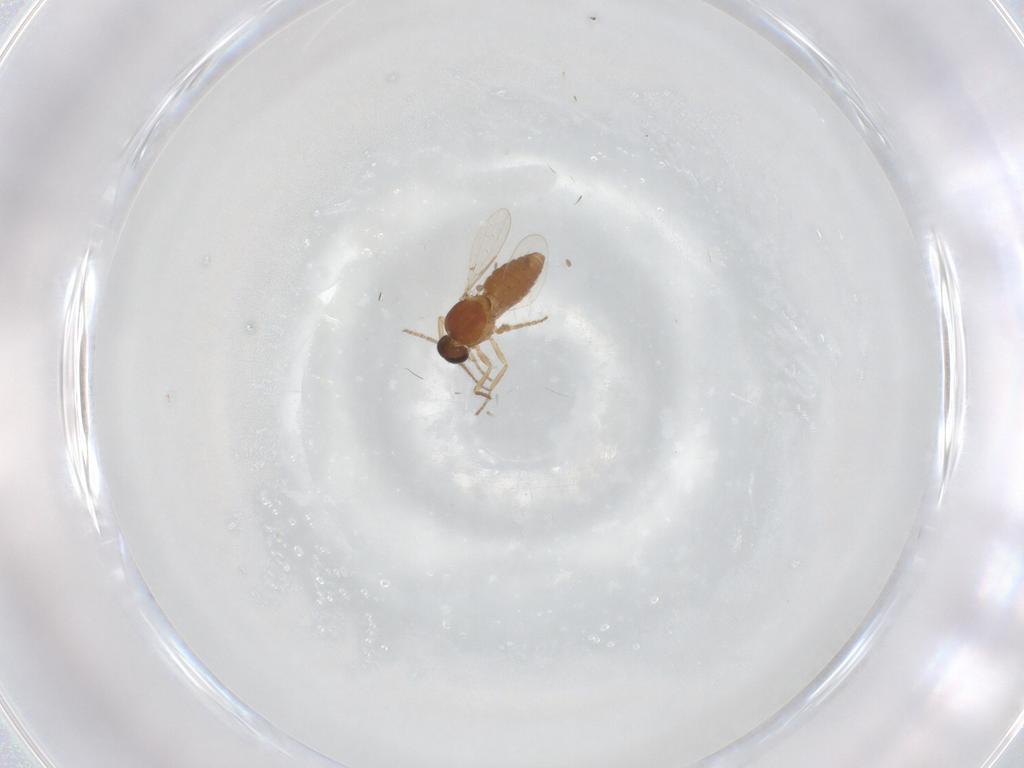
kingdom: Animalia
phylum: Arthropoda
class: Insecta
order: Diptera
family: Ceratopogonidae
